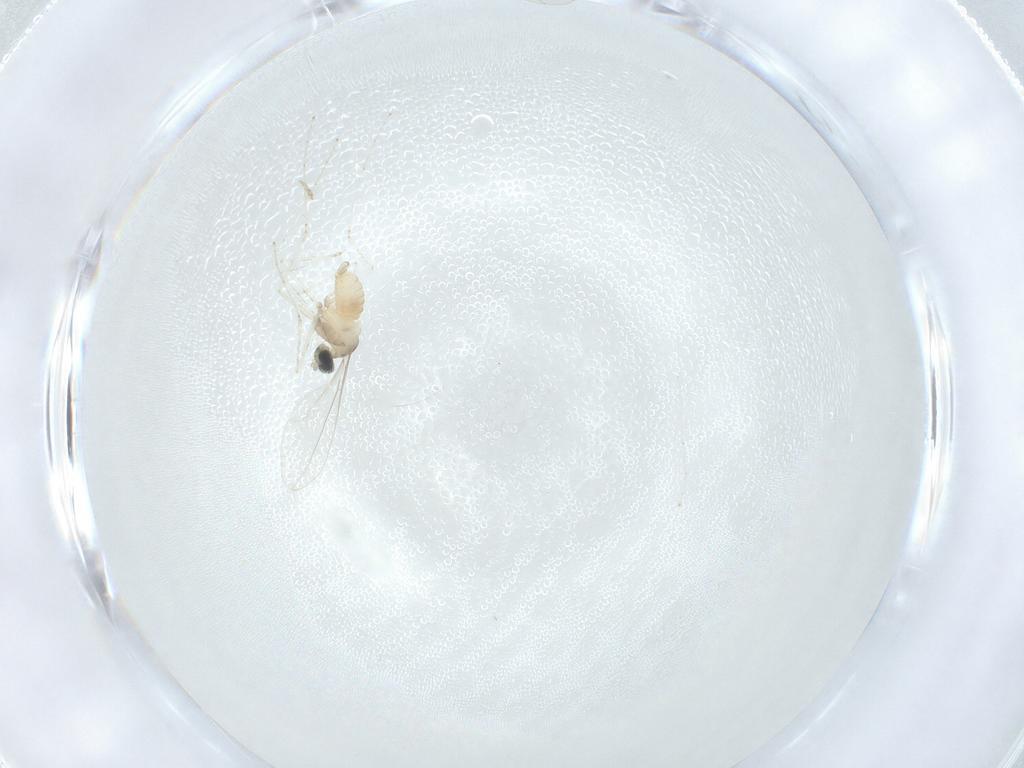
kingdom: Animalia
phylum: Arthropoda
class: Insecta
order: Diptera
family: Cecidomyiidae
